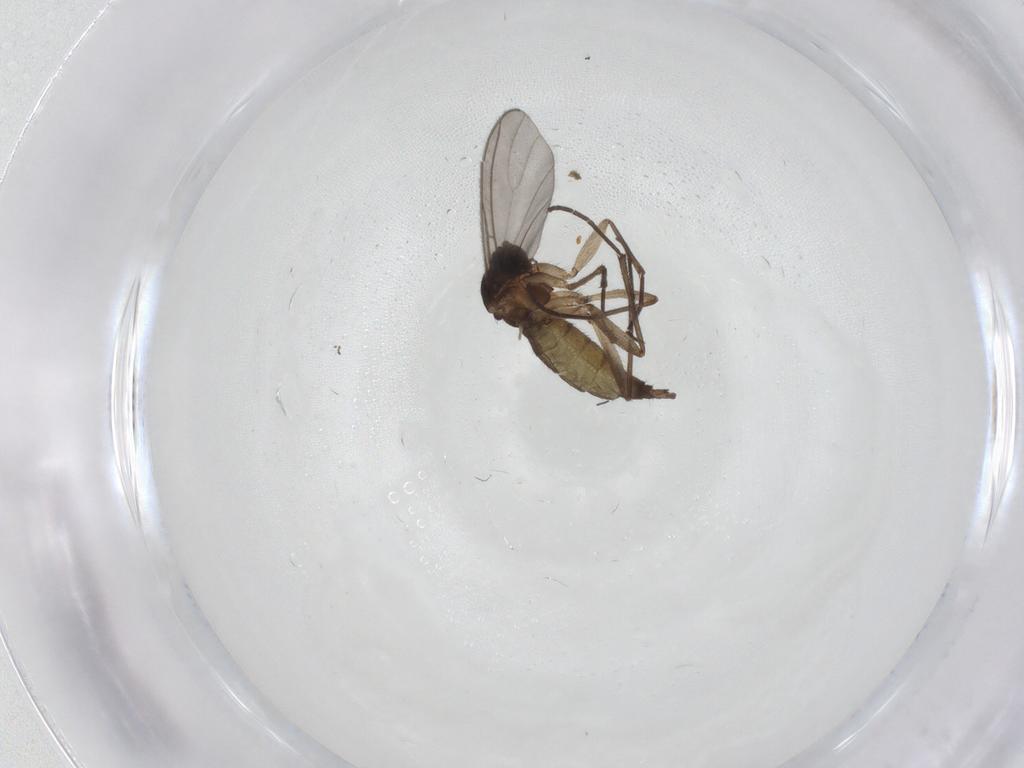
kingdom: Animalia
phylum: Arthropoda
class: Insecta
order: Diptera
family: Sciaridae
